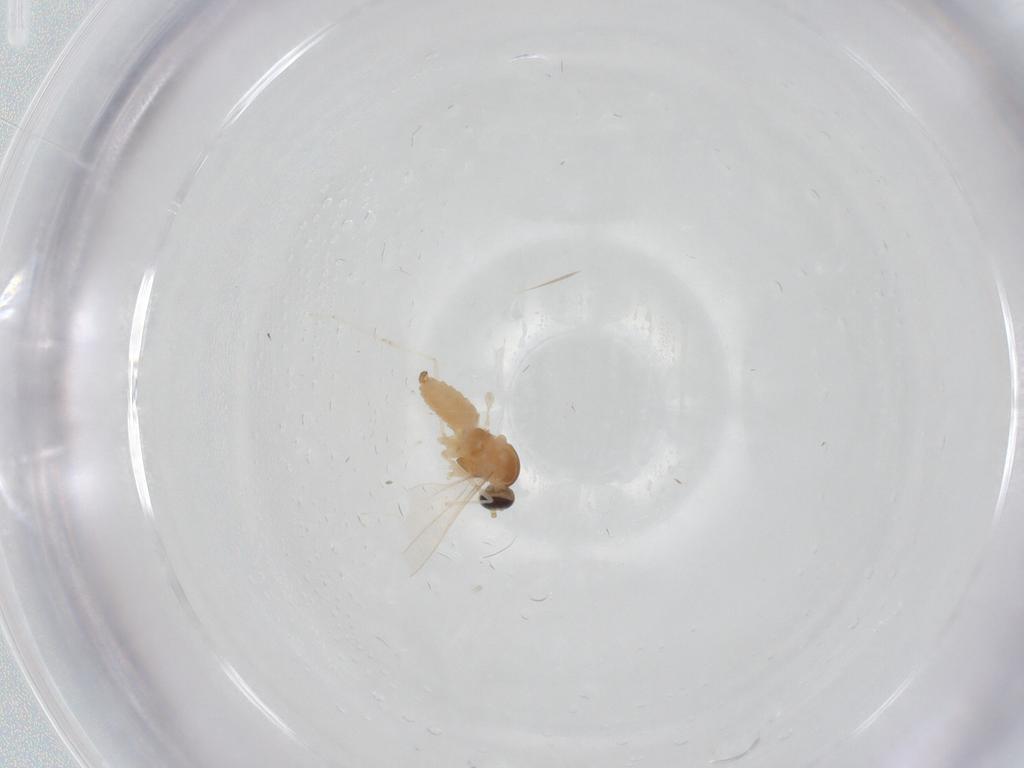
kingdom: Animalia
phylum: Arthropoda
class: Insecta
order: Diptera
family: Cecidomyiidae
